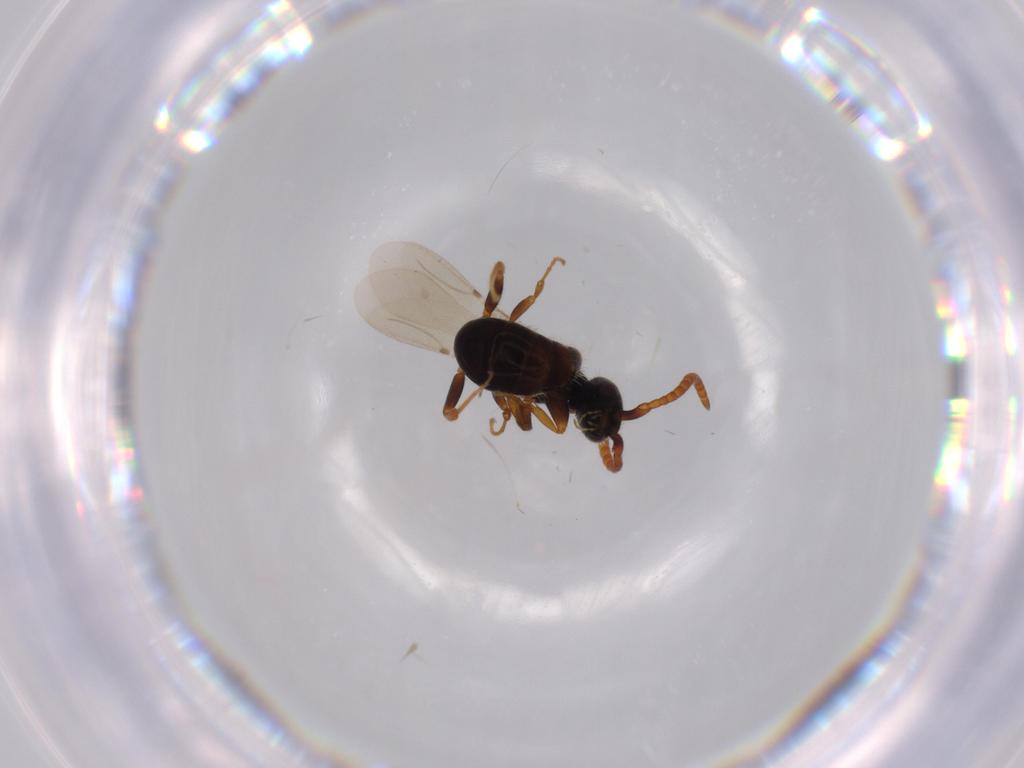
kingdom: Animalia
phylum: Arthropoda
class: Insecta
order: Hymenoptera
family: Bethylidae
